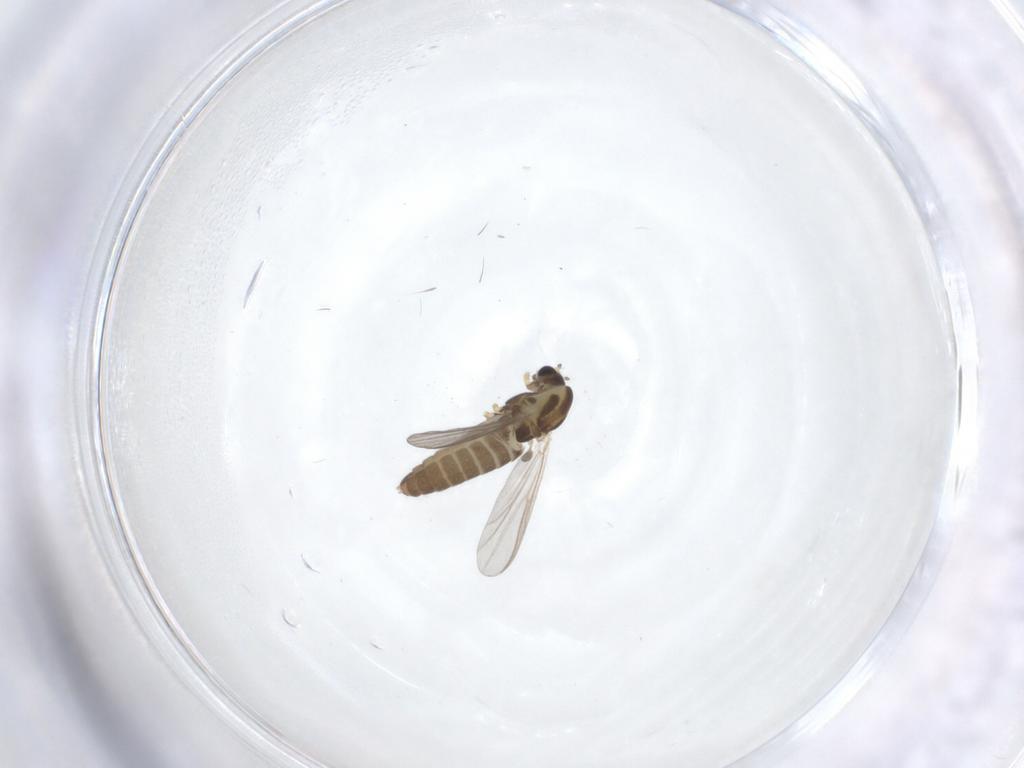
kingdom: Animalia
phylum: Arthropoda
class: Insecta
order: Diptera
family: Chironomidae
